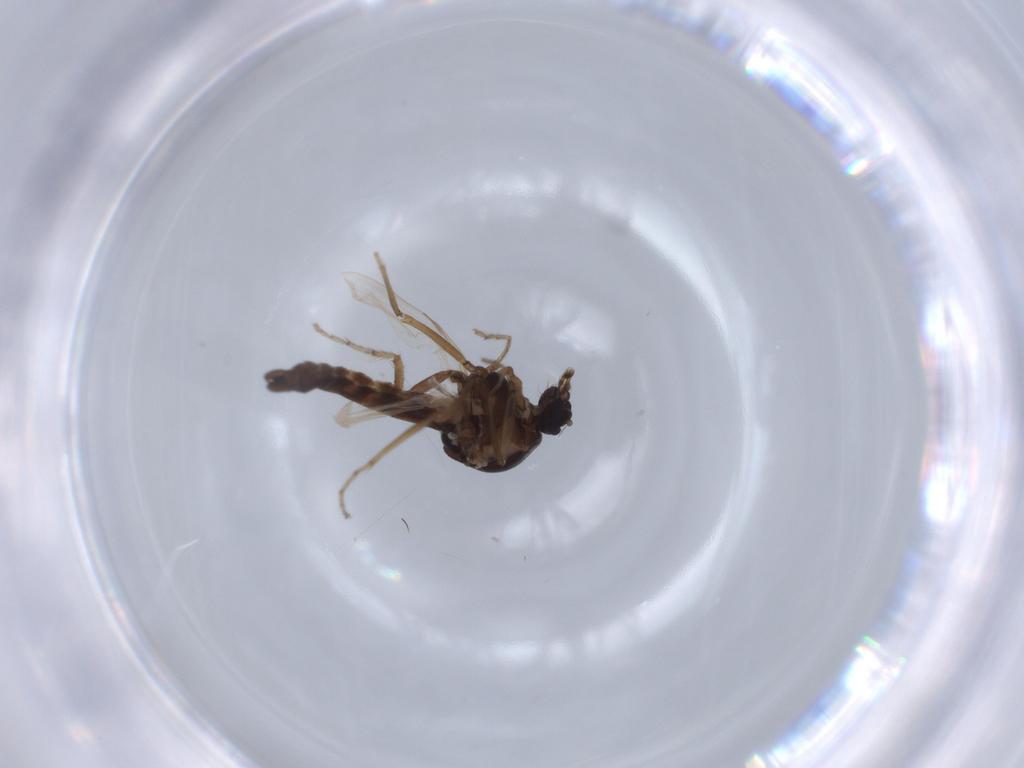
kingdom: Animalia
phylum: Arthropoda
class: Insecta
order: Diptera
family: Ceratopogonidae
